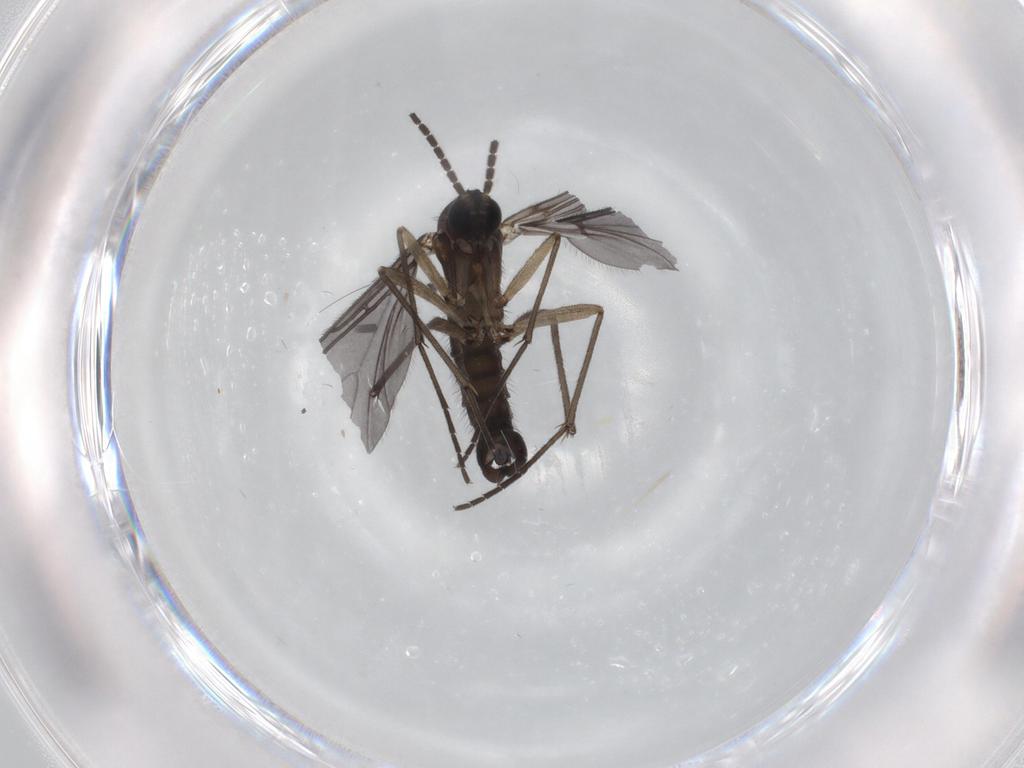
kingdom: Animalia
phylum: Arthropoda
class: Insecta
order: Diptera
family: Sciaridae
